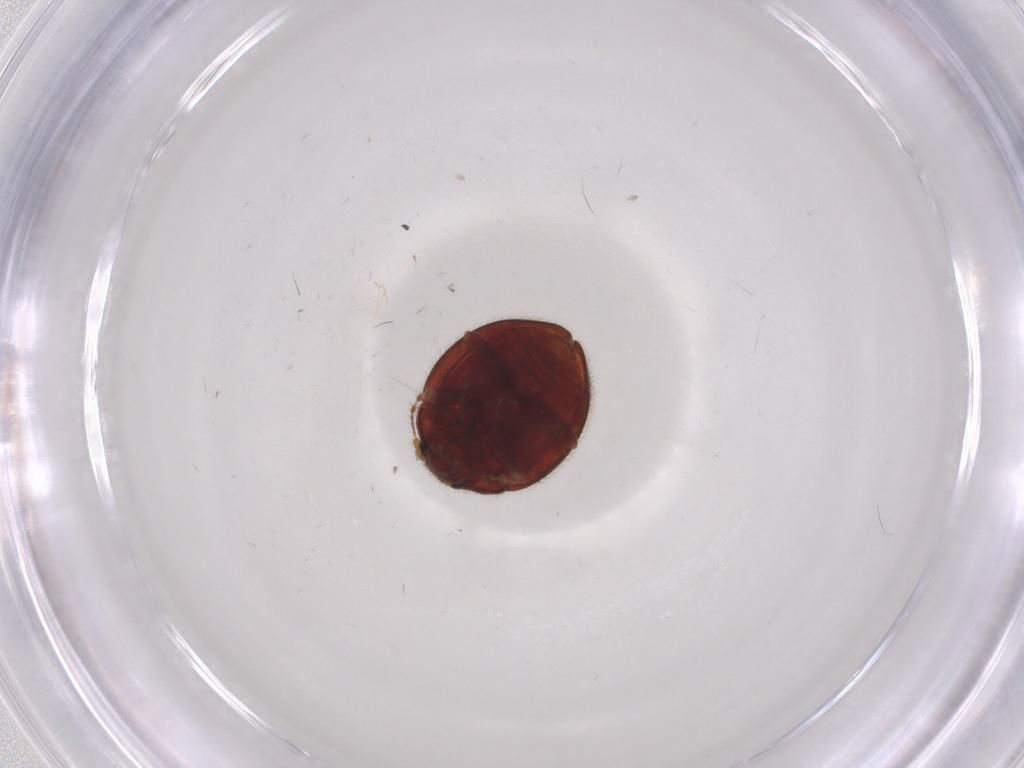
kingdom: Animalia
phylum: Arthropoda
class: Insecta
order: Coleoptera
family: Anamorphidae
